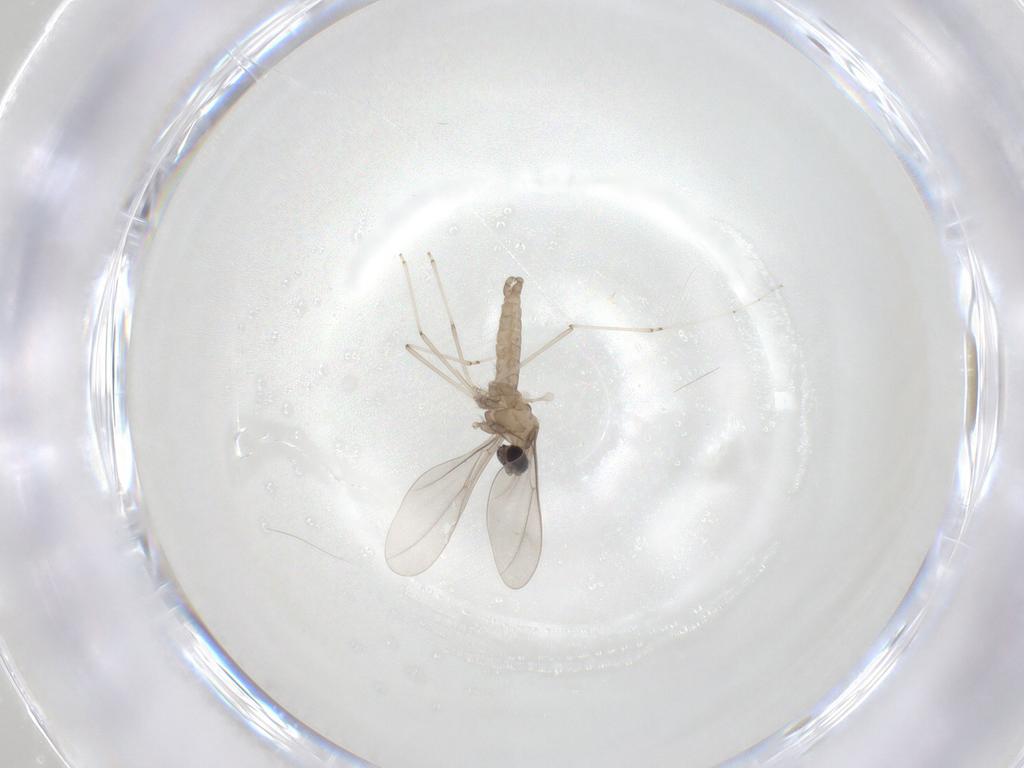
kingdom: Animalia
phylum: Arthropoda
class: Insecta
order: Diptera
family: Cecidomyiidae
